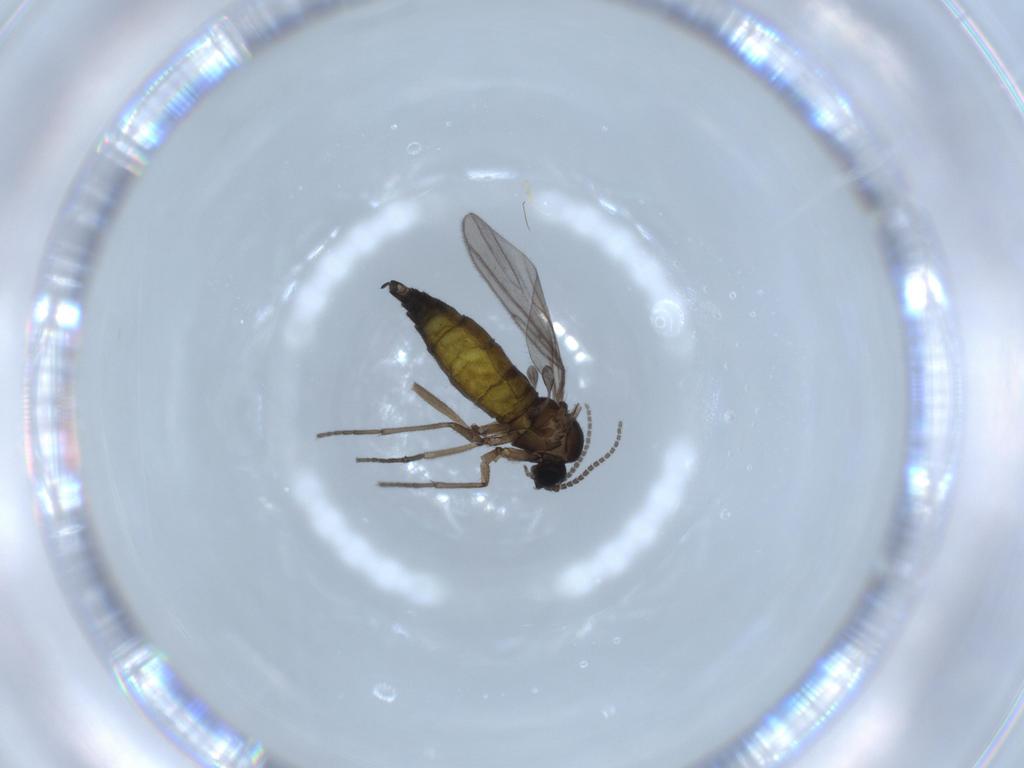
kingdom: Animalia
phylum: Arthropoda
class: Insecta
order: Diptera
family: Sciaridae
